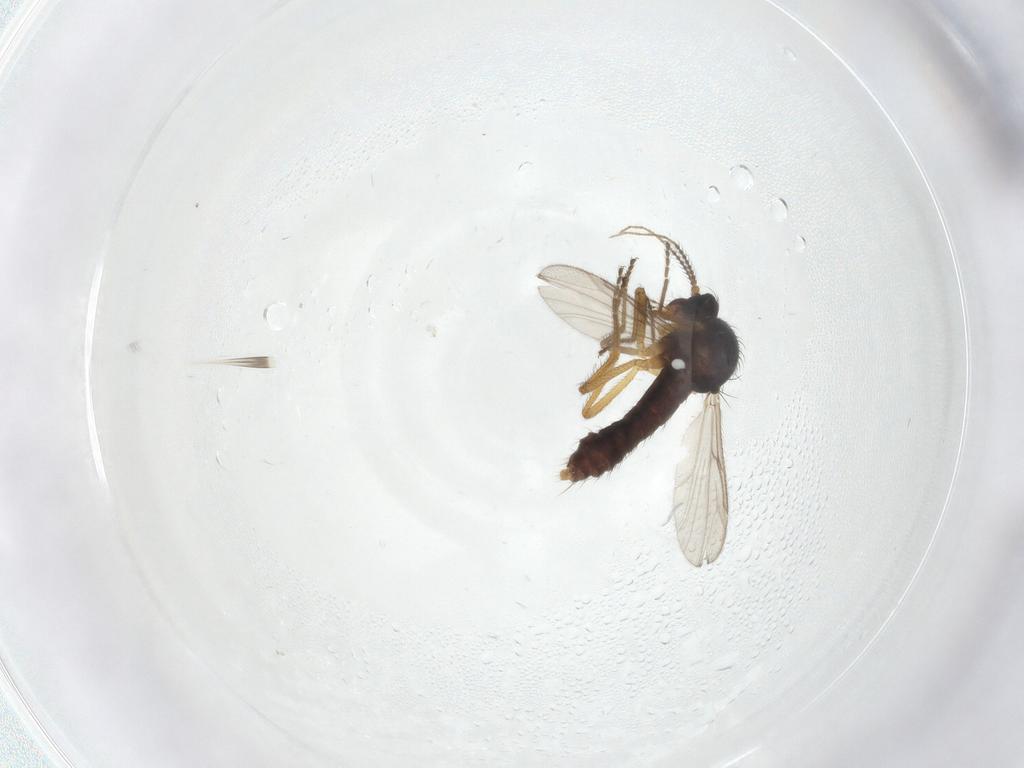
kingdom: Animalia
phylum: Arthropoda
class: Insecta
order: Diptera
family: Ceratopogonidae
